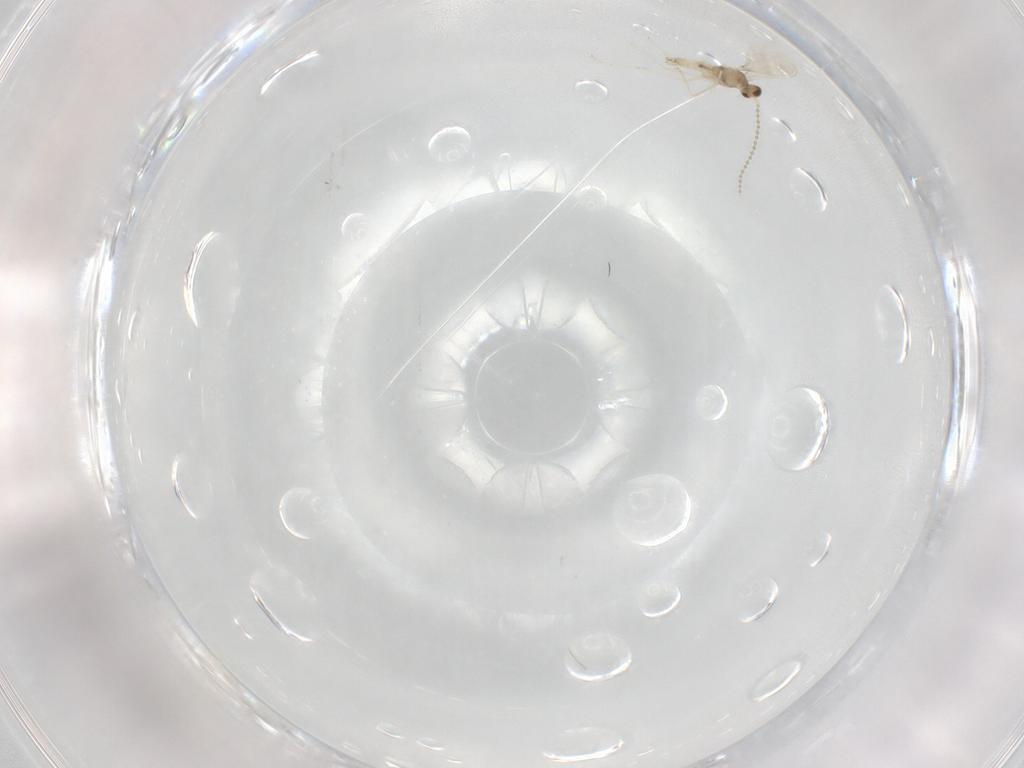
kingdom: Animalia
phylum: Arthropoda
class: Insecta
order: Diptera
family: Cecidomyiidae
